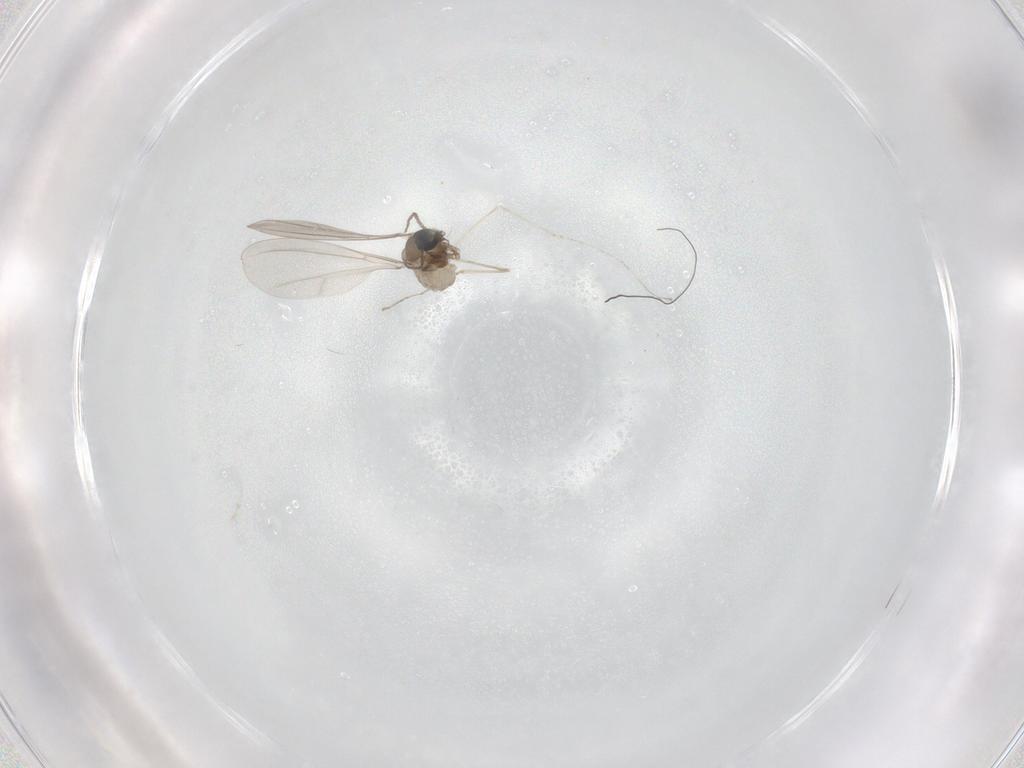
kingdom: Animalia
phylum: Arthropoda
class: Insecta
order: Diptera
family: Cecidomyiidae
